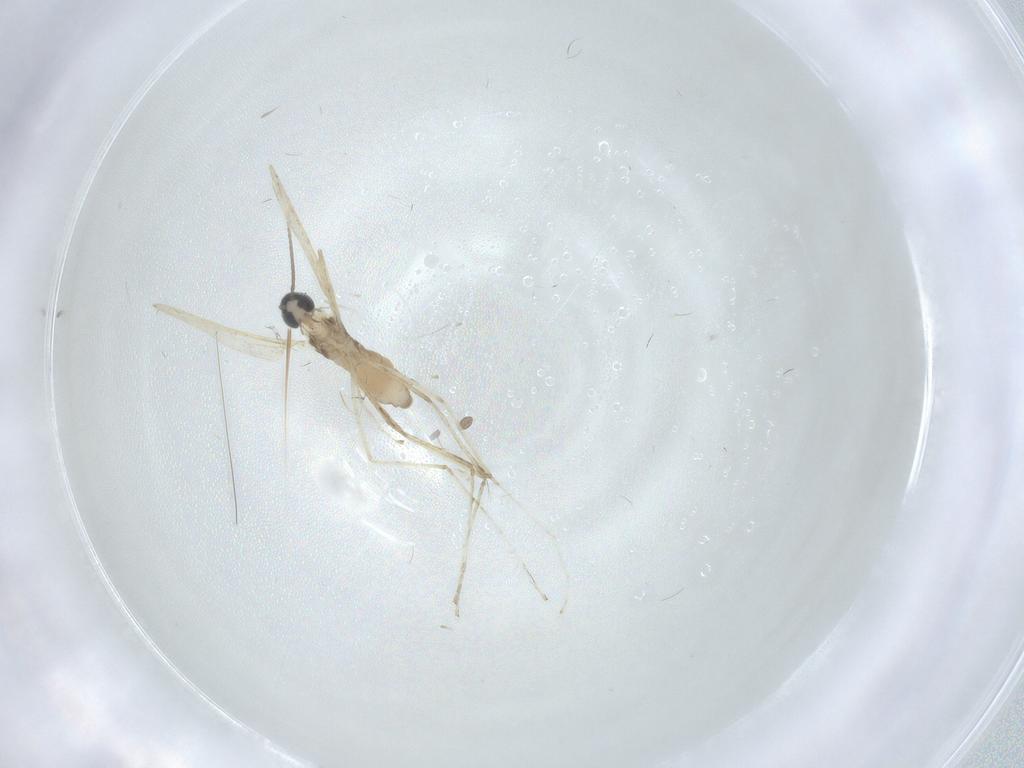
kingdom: Animalia
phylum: Arthropoda
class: Insecta
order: Diptera
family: Cecidomyiidae
